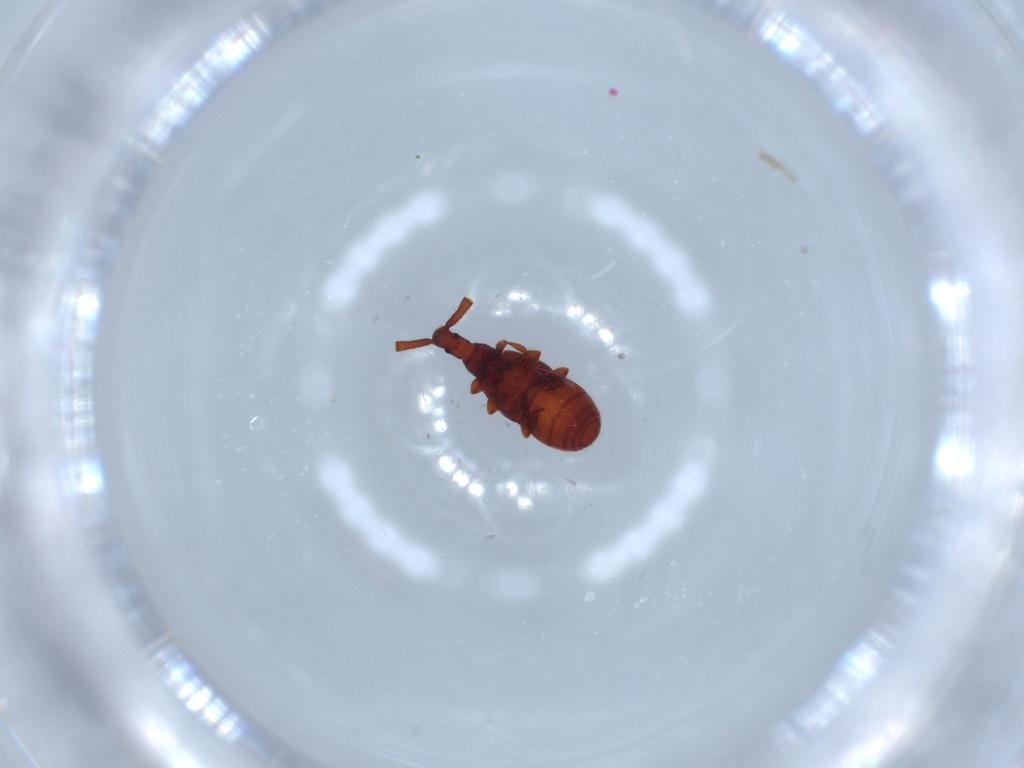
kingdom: Animalia
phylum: Arthropoda
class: Insecta
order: Coleoptera
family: Staphylinidae
